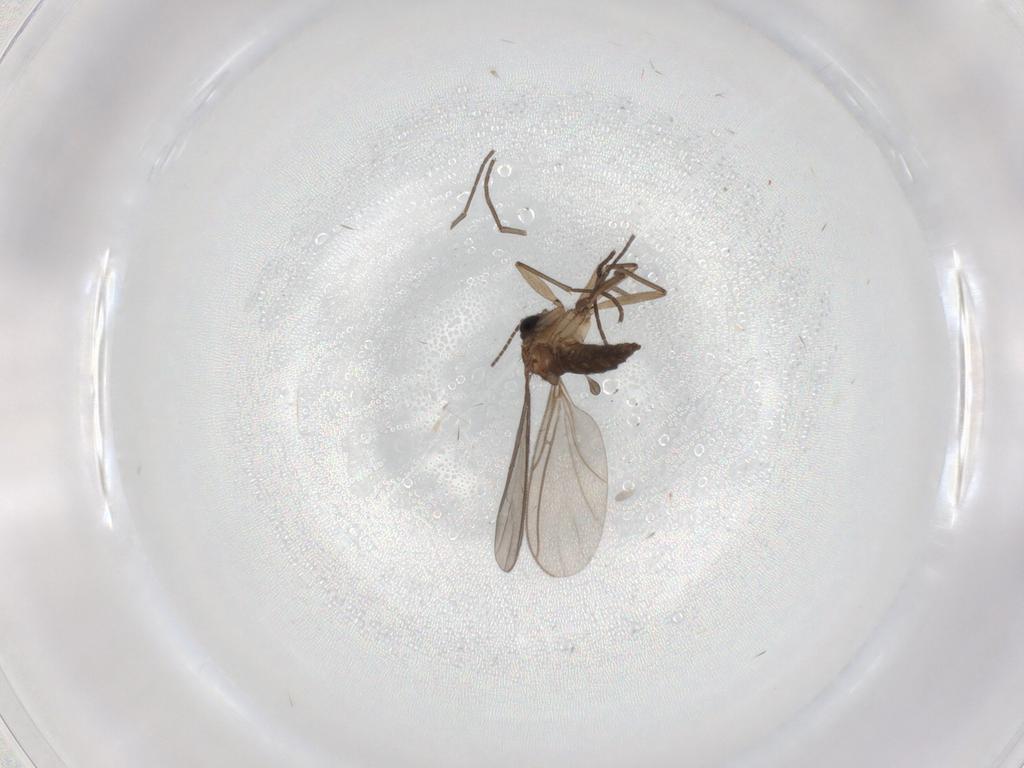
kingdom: Animalia
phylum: Arthropoda
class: Insecta
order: Diptera
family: Sciaridae
